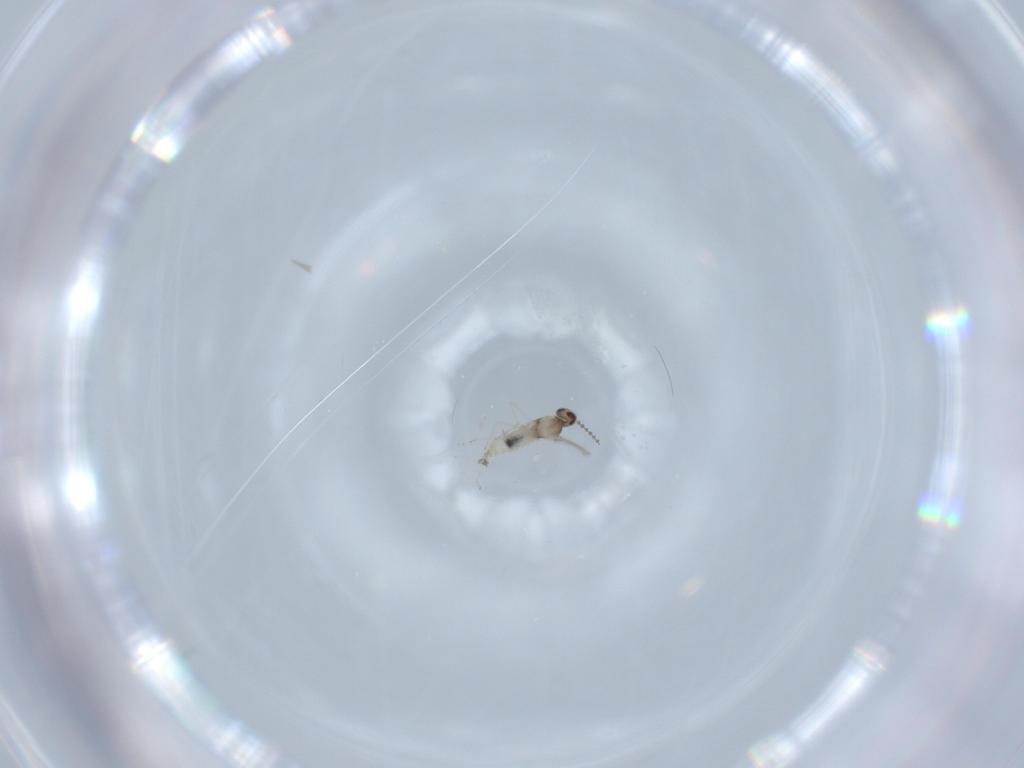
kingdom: Animalia
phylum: Arthropoda
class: Insecta
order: Diptera
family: Cecidomyiidae
